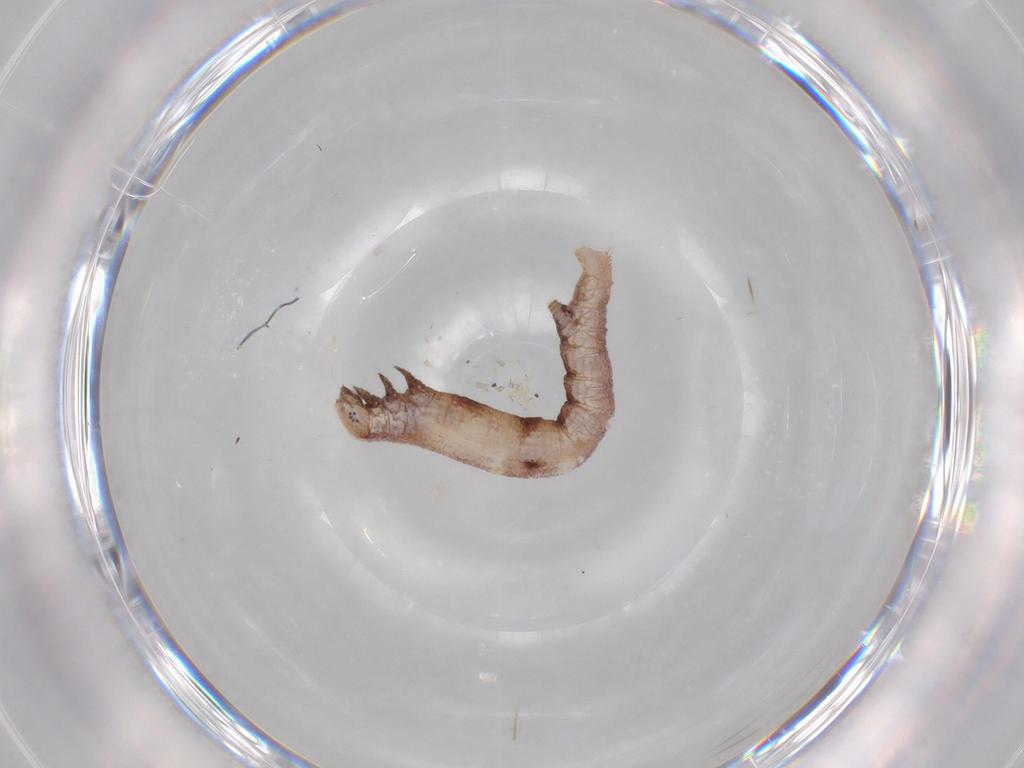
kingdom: Animalia
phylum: Arthropoda
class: Insecta
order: Lepidoptera
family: Geometridae
